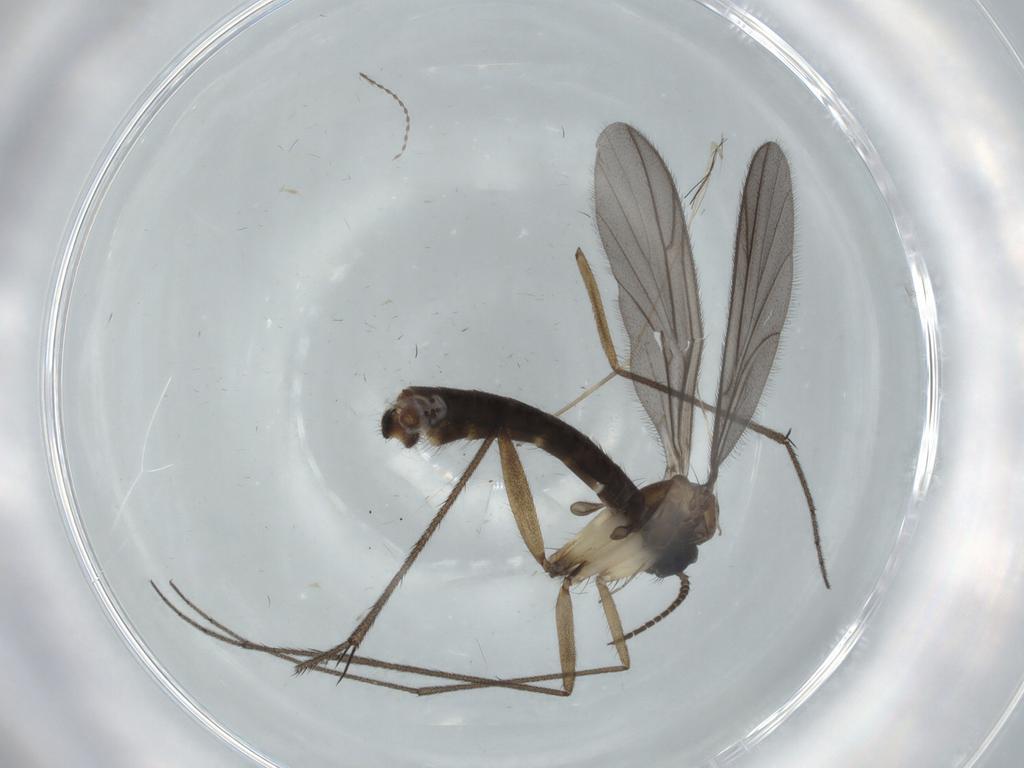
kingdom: Animalia
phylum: Arthropoda
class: Insecta
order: Diptera
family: Sciaridae
